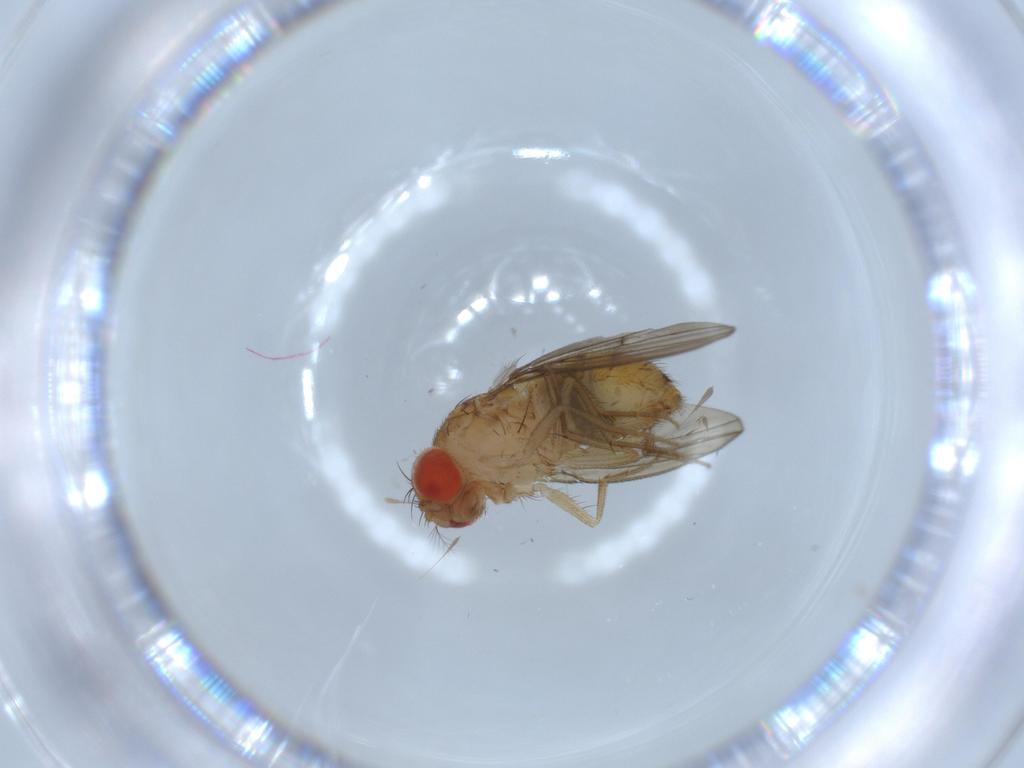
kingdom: Animalia
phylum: Arthropoda
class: Insecta
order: Diptera
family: Drosophilidae
